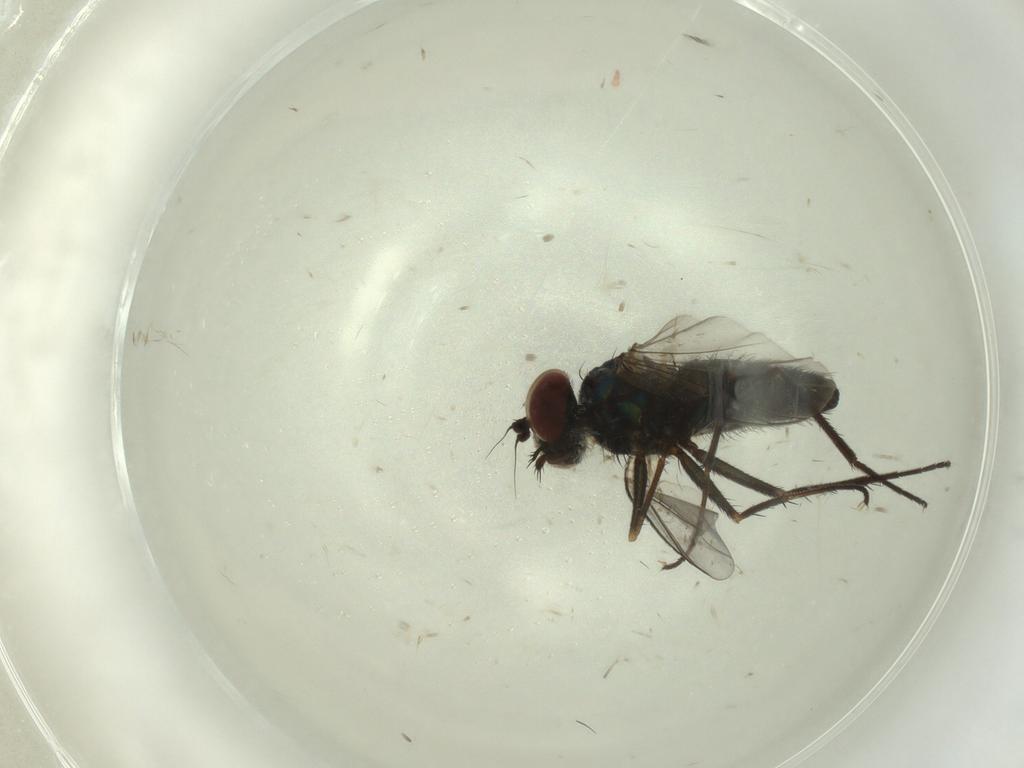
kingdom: Animalia
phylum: Arthropoda
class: Insecta
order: Diptera
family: Dolichopodidae
